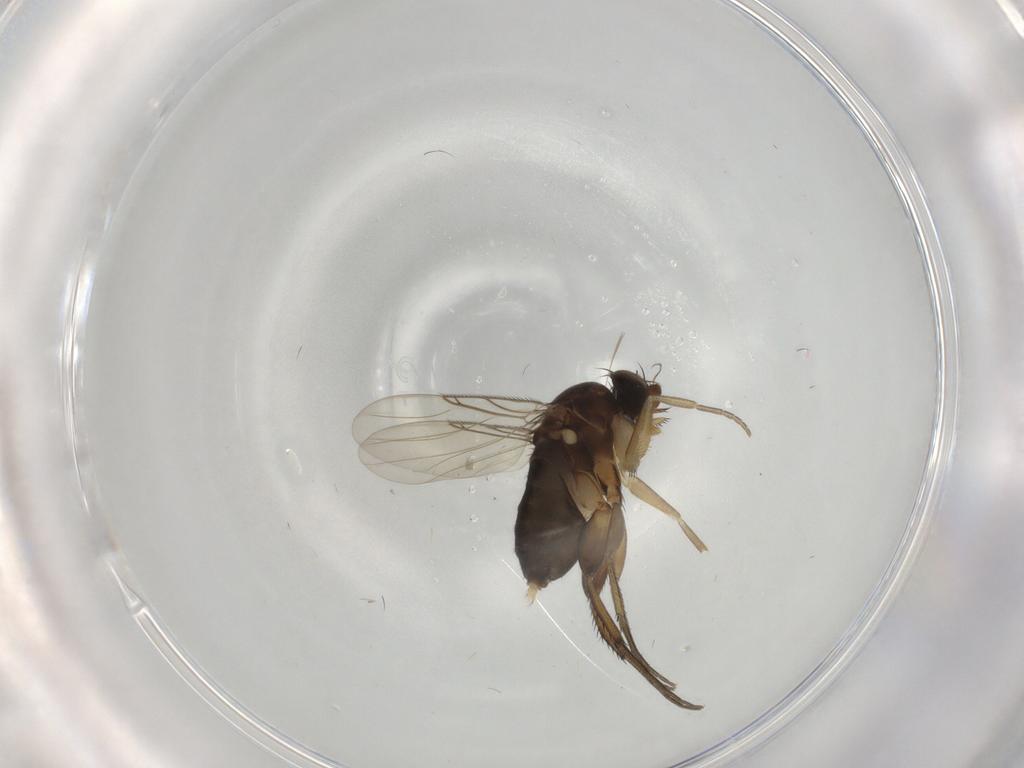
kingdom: Animalia
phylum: Arthropoda
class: Insecta
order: Diptera
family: Phoridae
